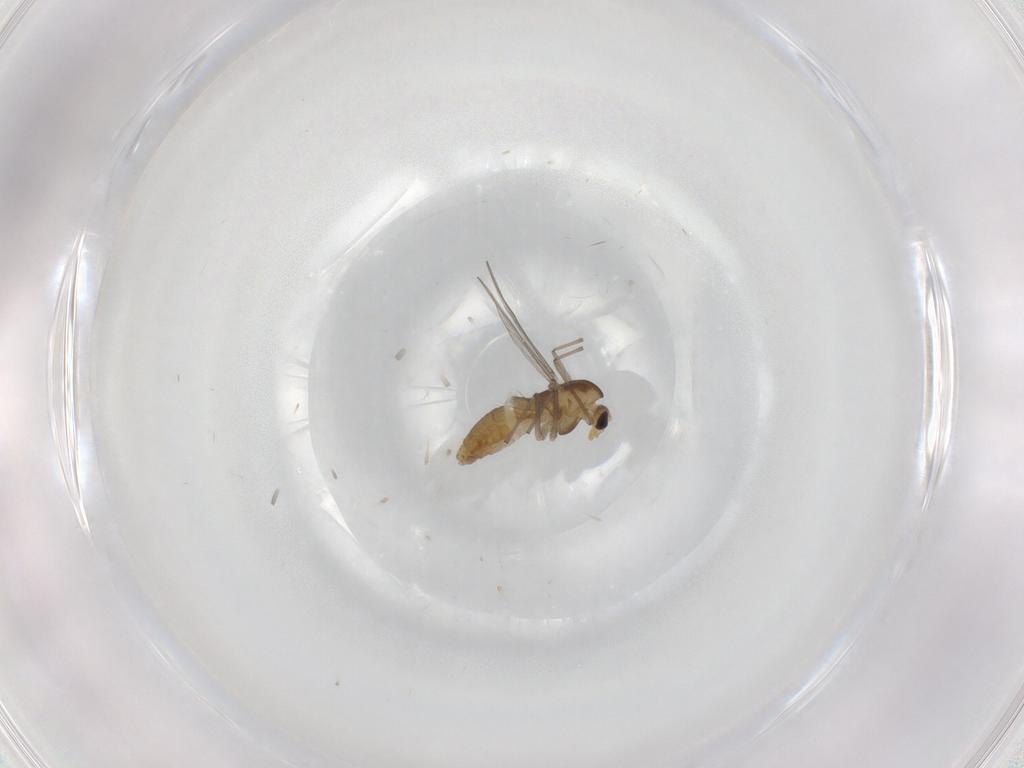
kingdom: Animalia
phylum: Arthropoda
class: Insecta
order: Diptera
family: Chironomidae
